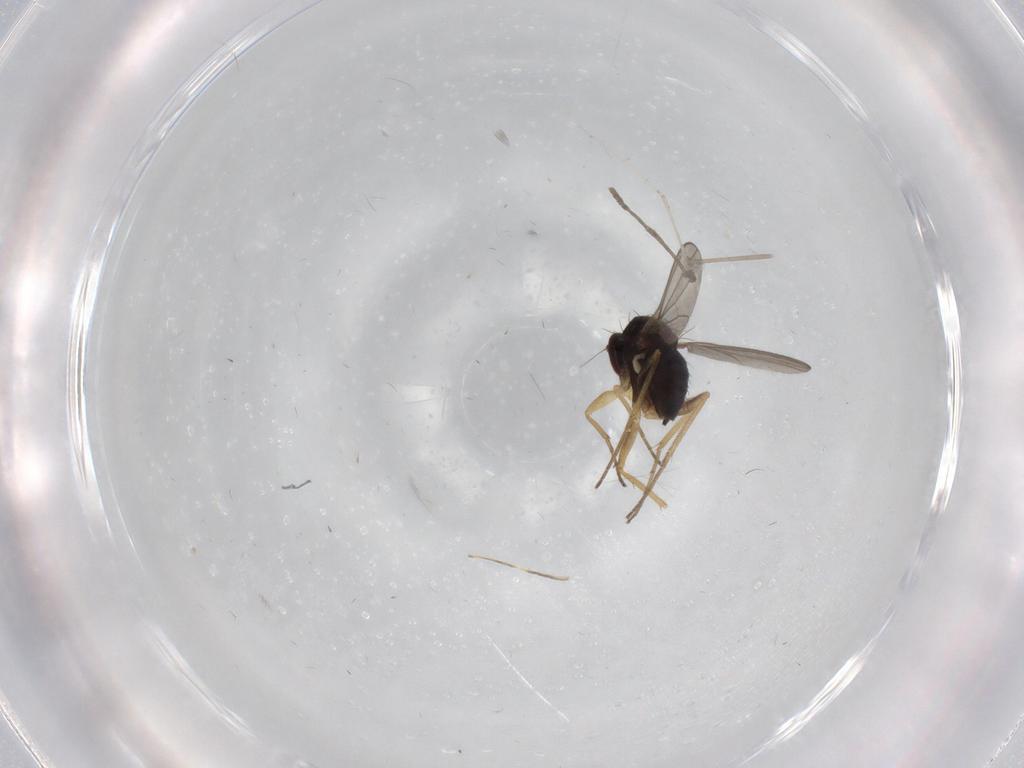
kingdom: Animalia
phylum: Arthropoda
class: Insecta
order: Diptera
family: Dolichopodidae
